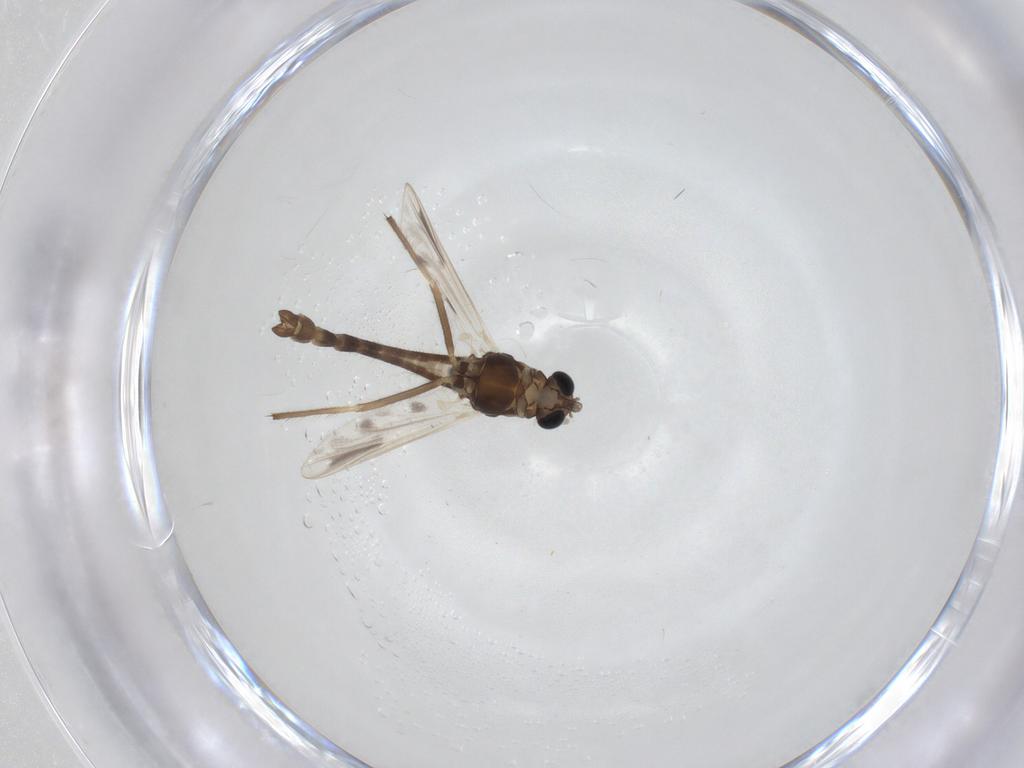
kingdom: Animalia
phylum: Arthropoda
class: Insecta
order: Diptera
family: Chironomidae
